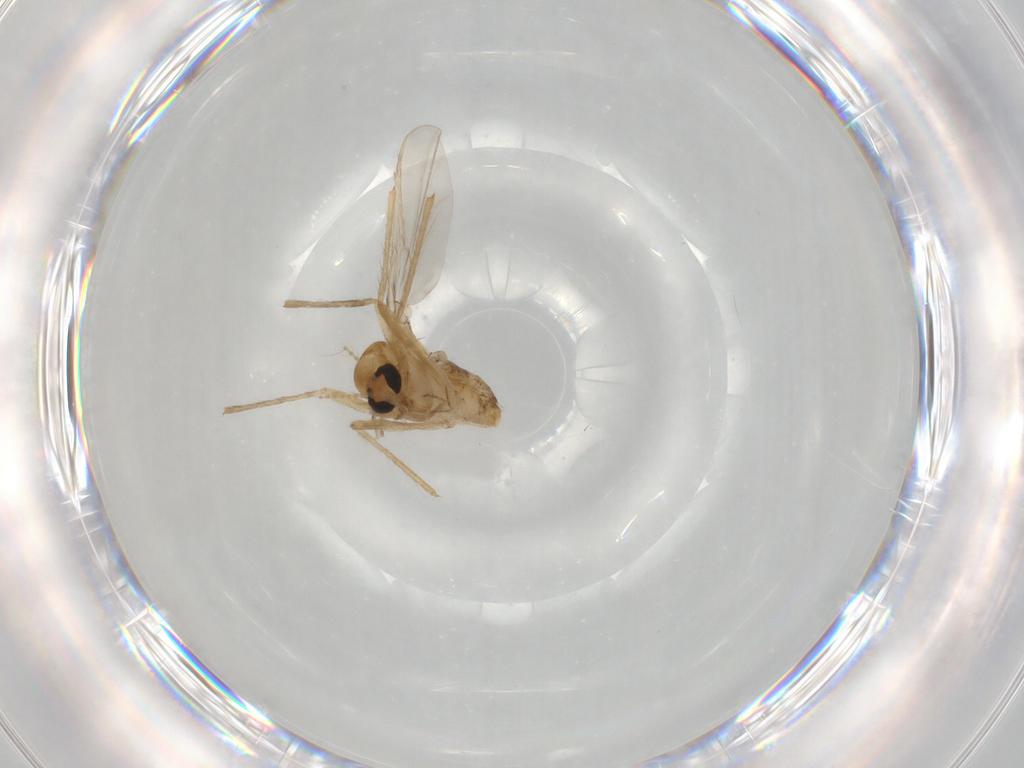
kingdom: Animalia
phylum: Arthropoda
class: Insecta
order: Diptera
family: Chironomidae
